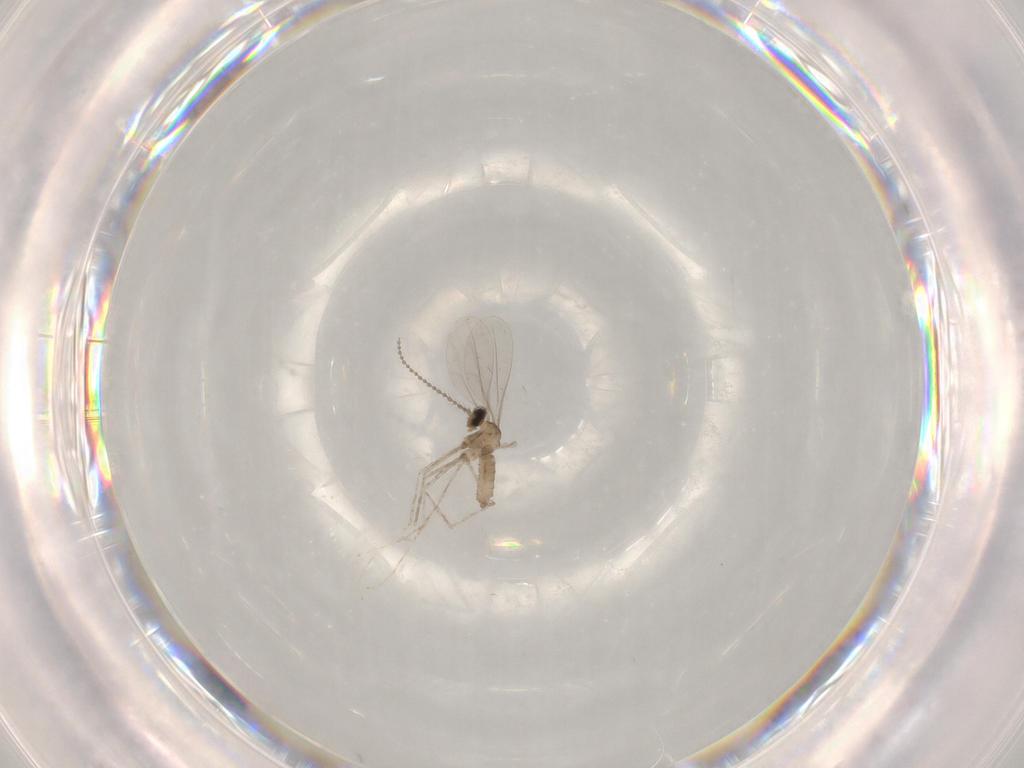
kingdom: Animalia
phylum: Arthropoda
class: Insecta
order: Diptera
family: Cecidomyiidae
